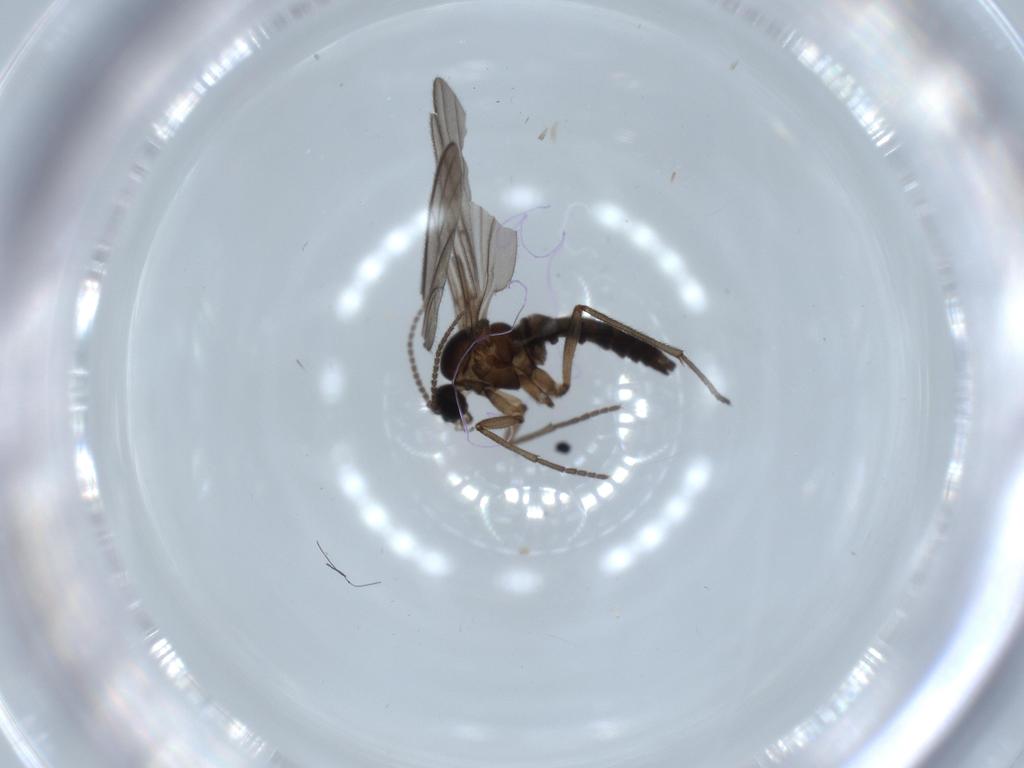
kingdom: Animalia
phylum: Arthropoda
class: Insecta
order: Diptera
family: Sciaridae
